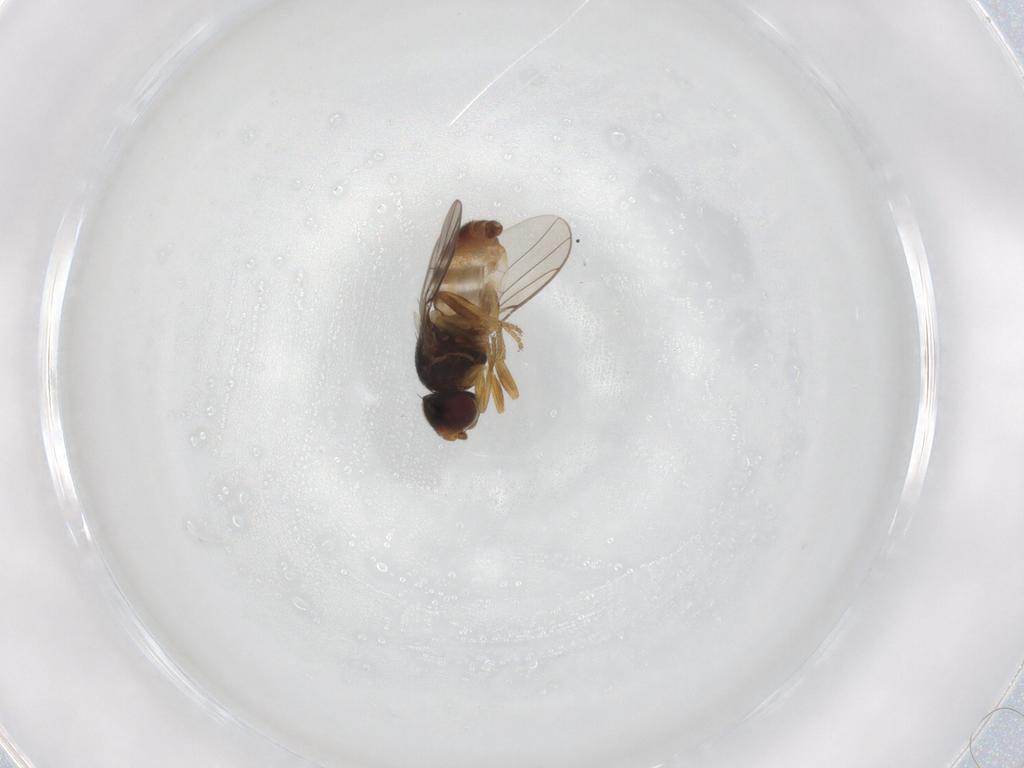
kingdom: Animalia
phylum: Arthropoda
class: Insecta
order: Diptera
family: Chloropidae
